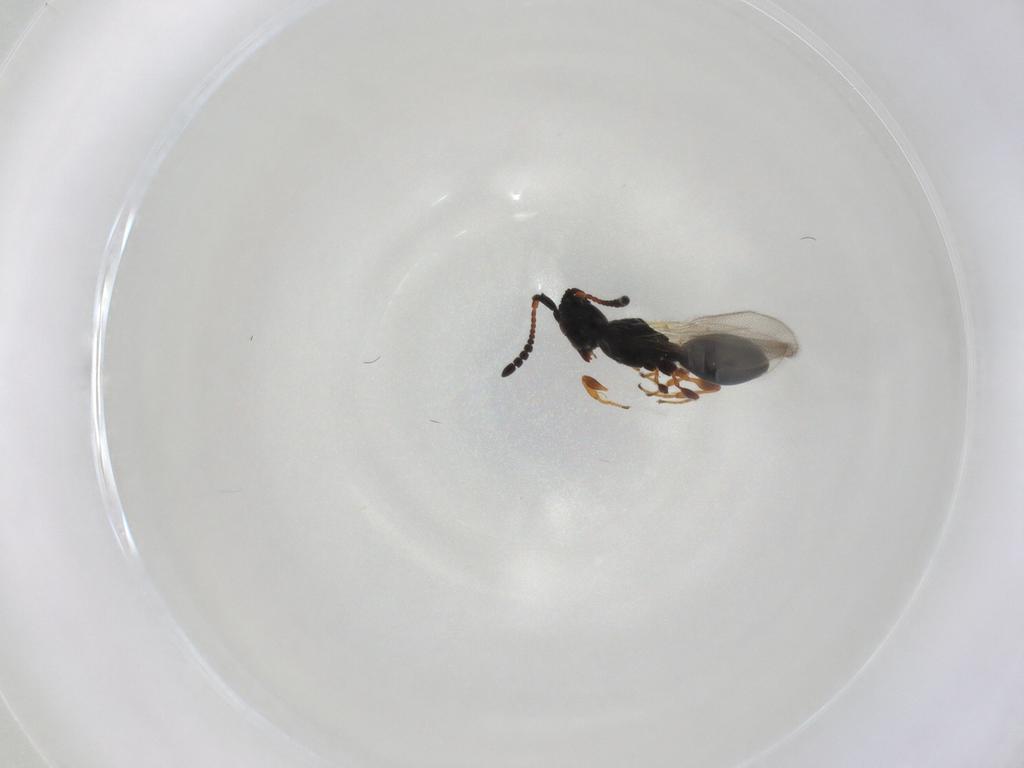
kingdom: Animalia
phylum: Arthropoda
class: Insecta
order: Hymenoptera
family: Diapriidae
